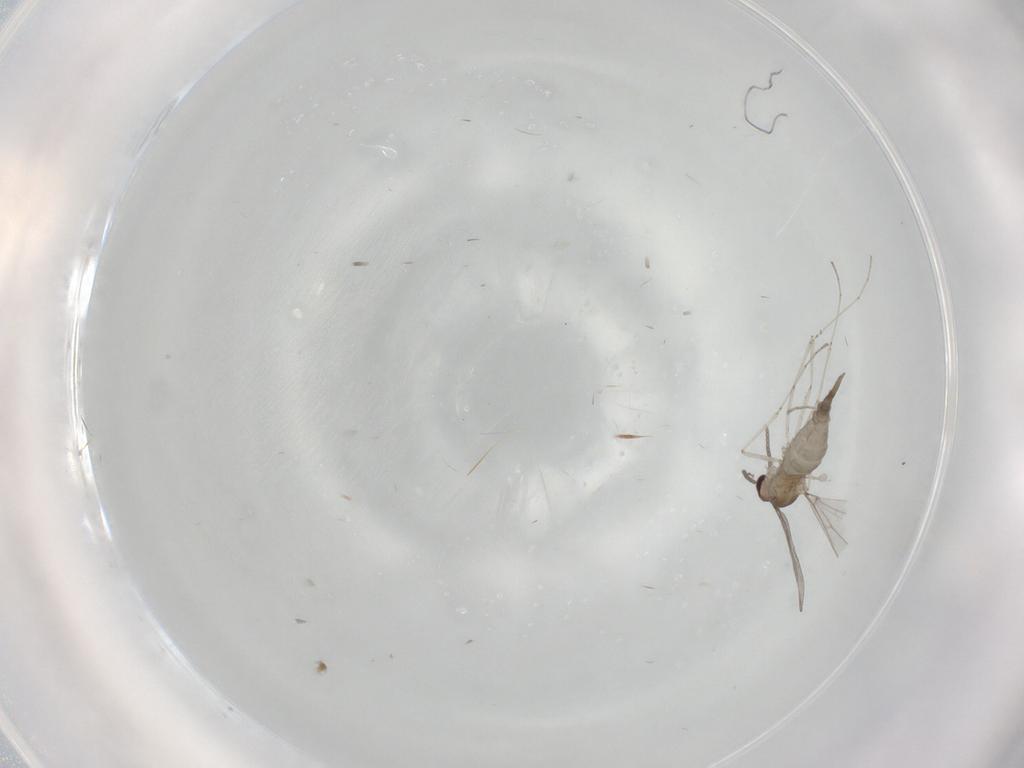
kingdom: Animalia
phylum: Arthropoda
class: Insecta
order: Diptera
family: Cecidomyiidae
